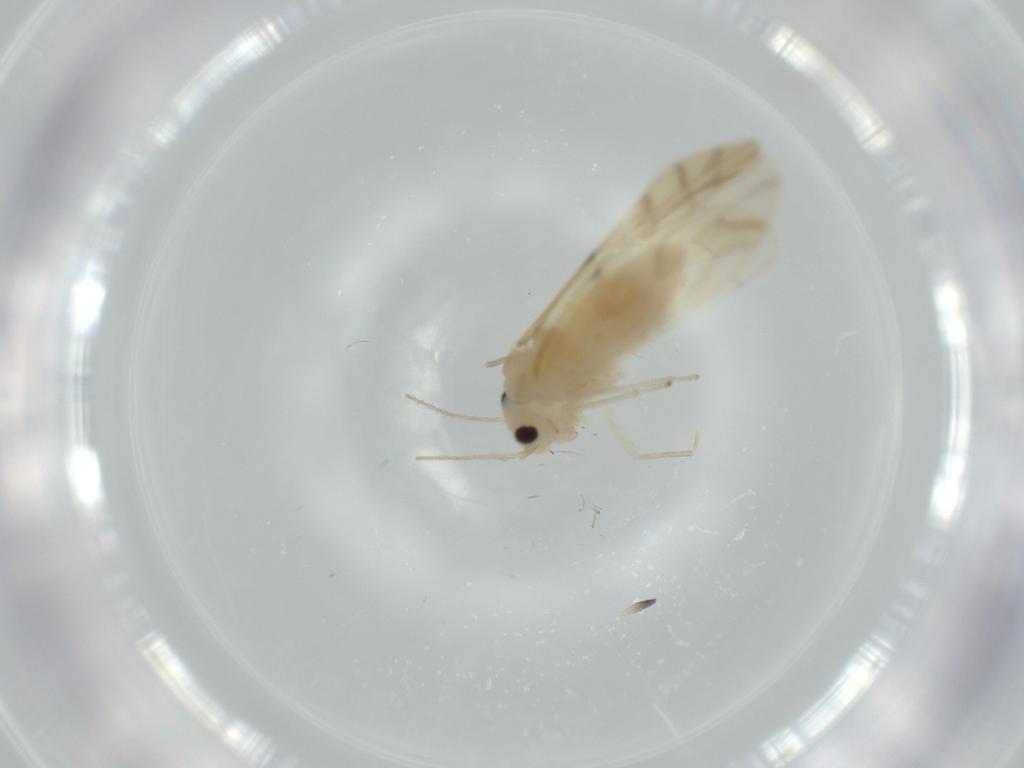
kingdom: Animalia
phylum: Arthropoda
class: Insecta
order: Psocodea
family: Caeciliusidae
